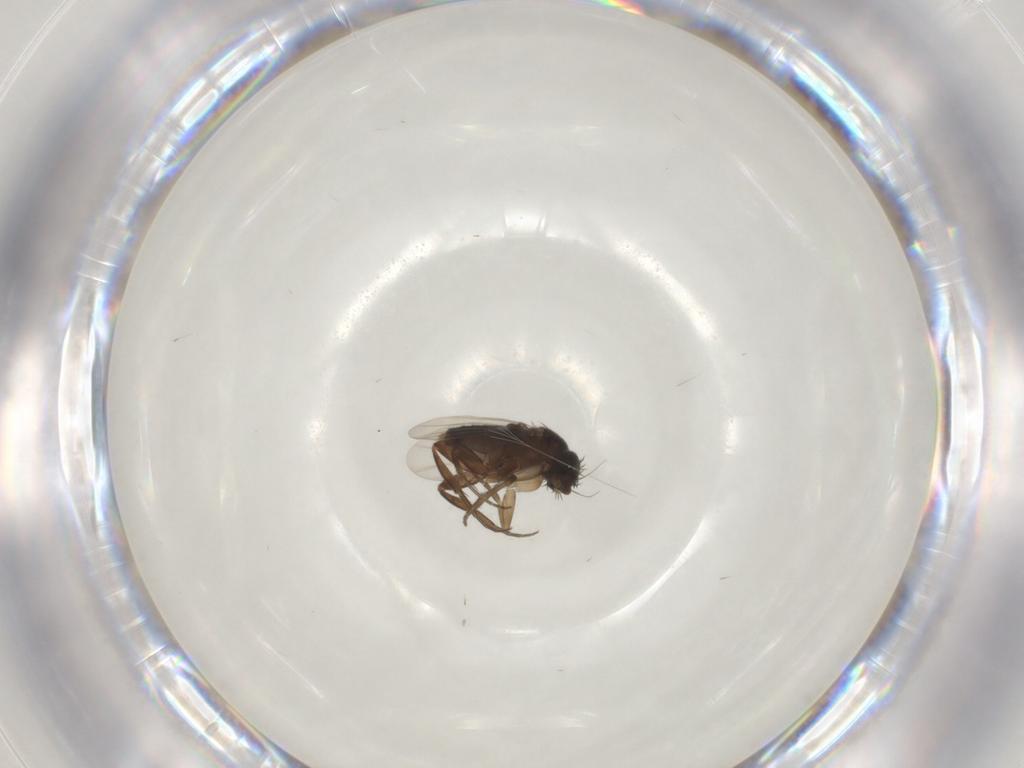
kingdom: Animalia
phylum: Arthropoda
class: Insecta
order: Diptera
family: Phoridae
